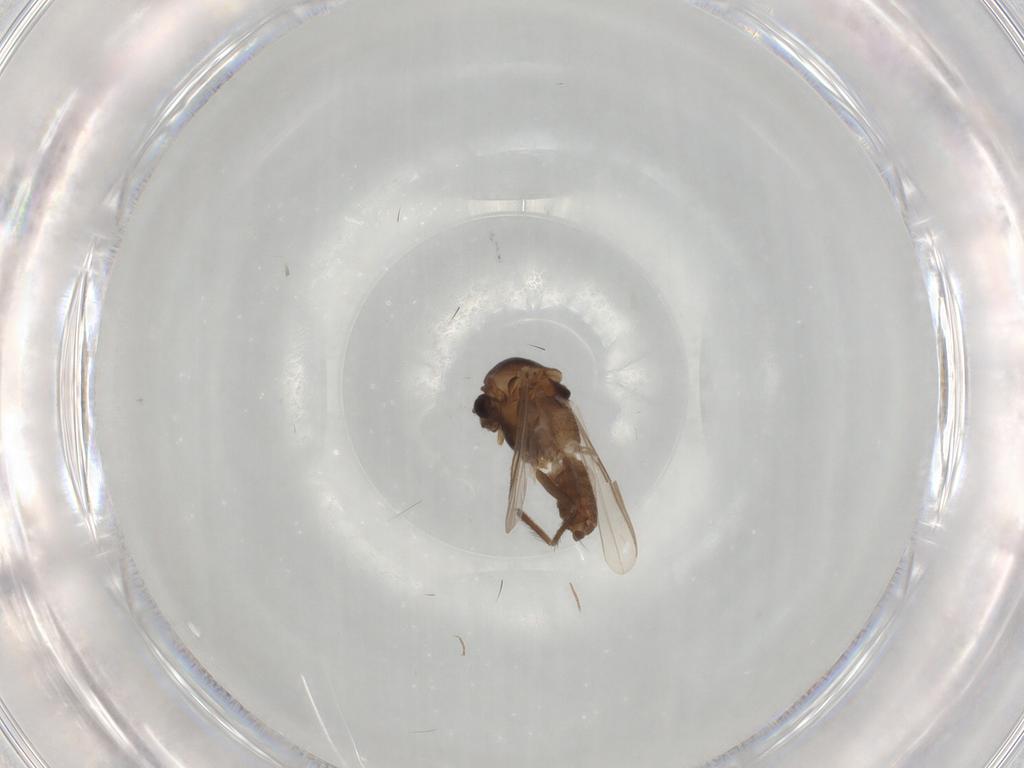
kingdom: Animalia
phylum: Arthropoda
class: Insecta
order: Diptera
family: Chironomidae
